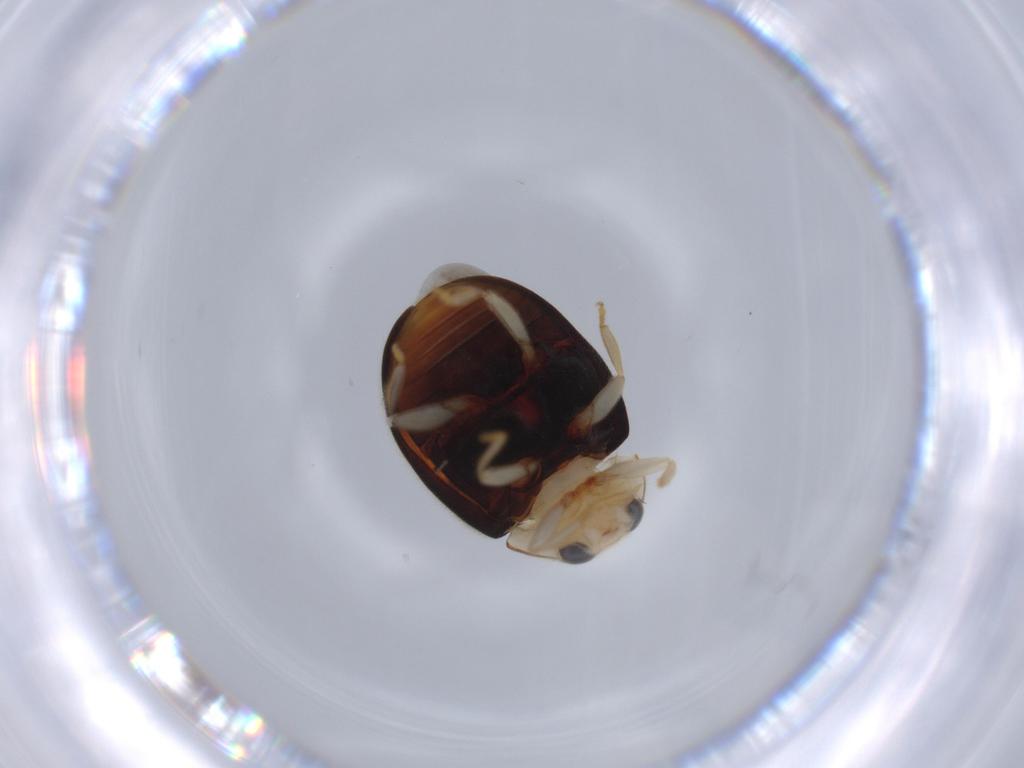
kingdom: Animalia
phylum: Arthropoda
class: Insecta
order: Coleoptera
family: Coccinellidae
